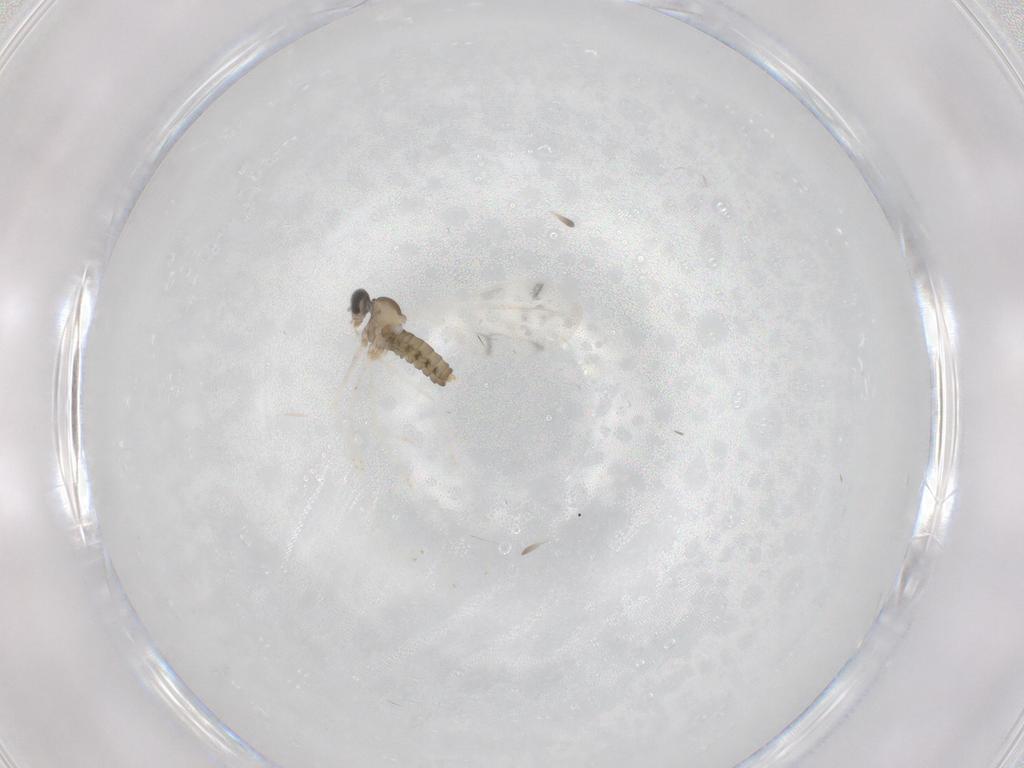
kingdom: Animalia
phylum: Arthropoda
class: Insecta
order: Diptera
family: Cecidomyiidae
